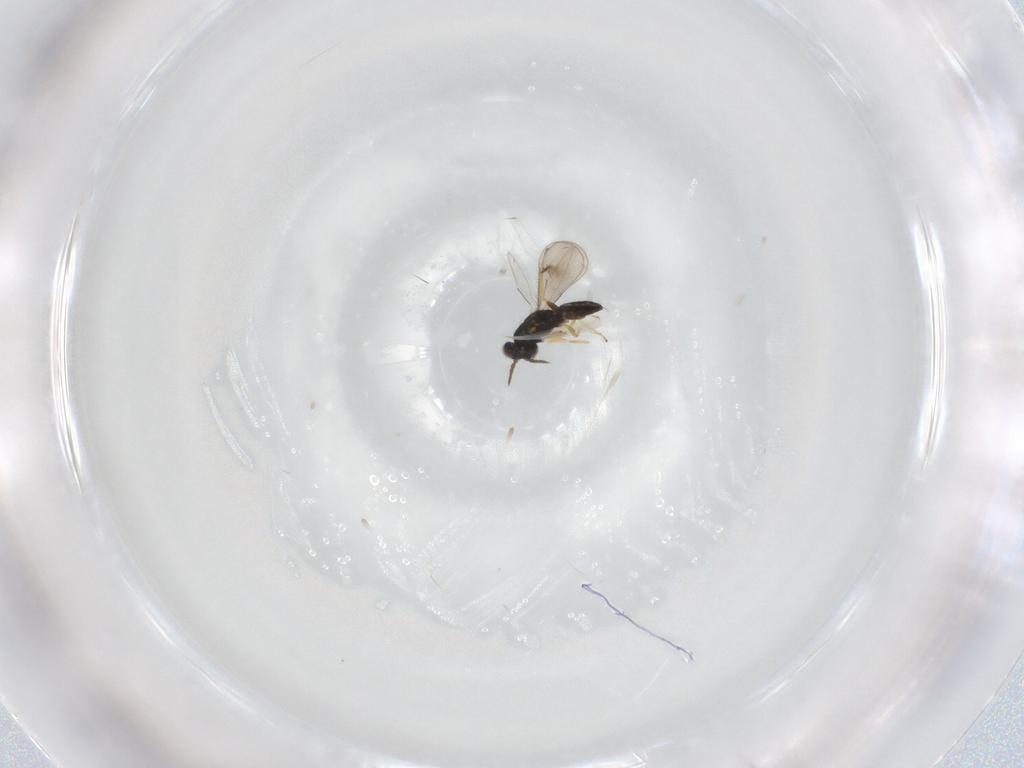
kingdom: Animalia
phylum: Arthropoda
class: Insecta
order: Hymenoptera
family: Eulophidae
